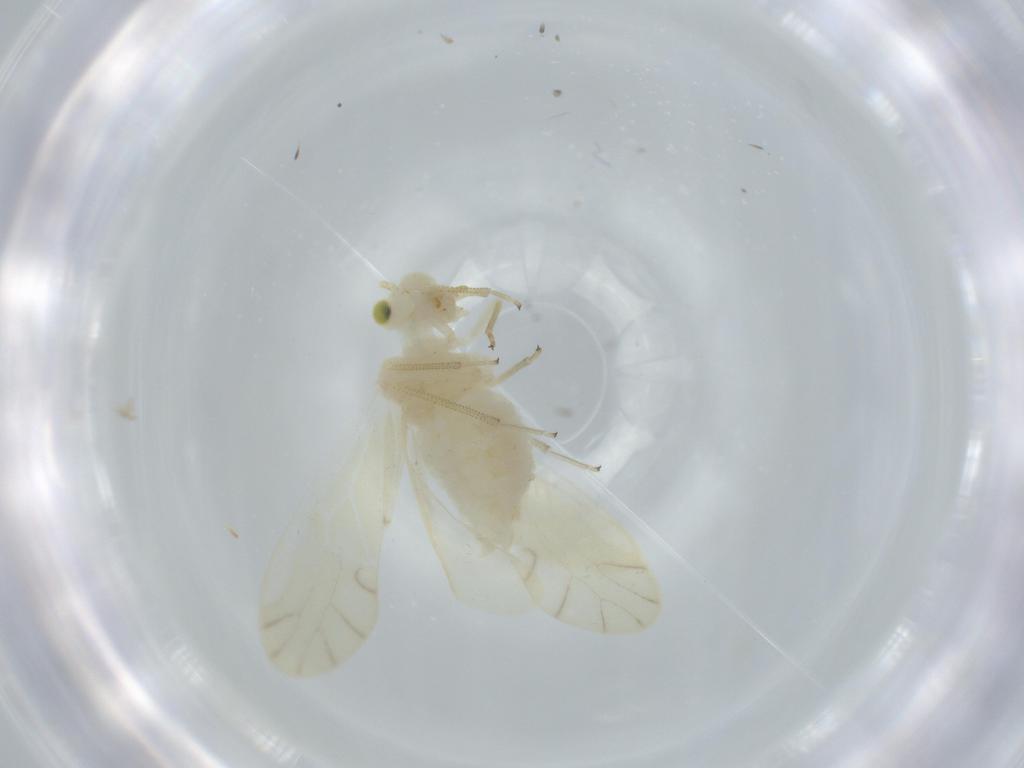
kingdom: Animalia
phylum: Arthropoda
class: Insecta
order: Psocodea
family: Caeciliusidae
